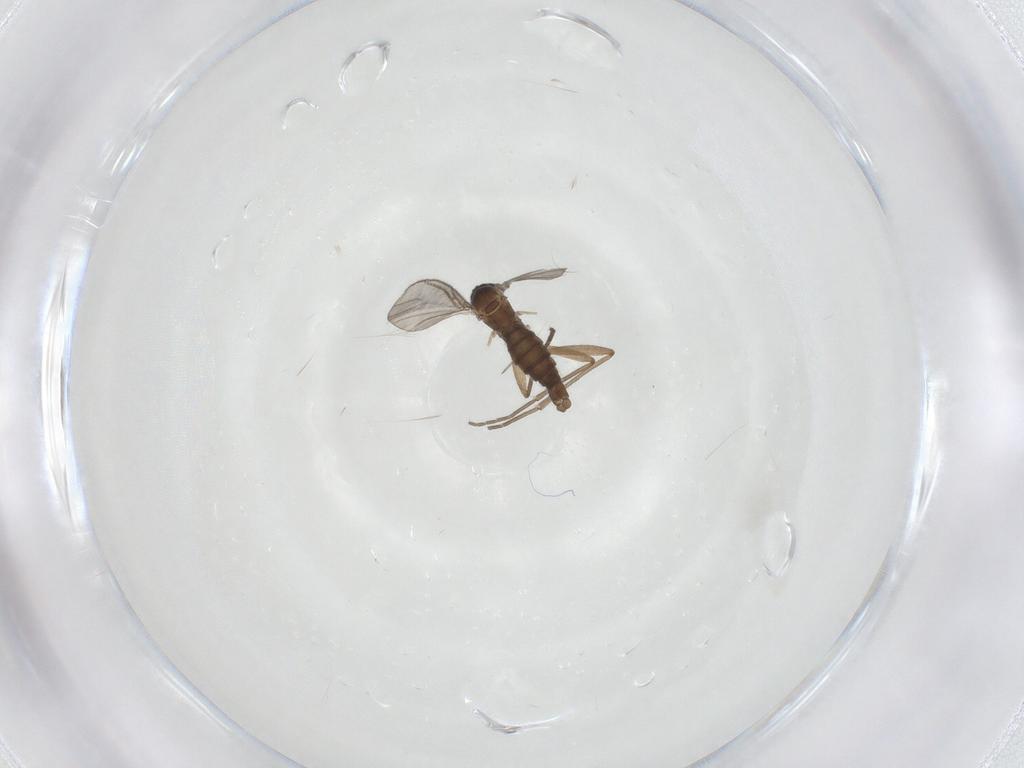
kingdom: Animalia
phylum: Arthropoda
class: Insecta
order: Diptera
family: Sciaridae
